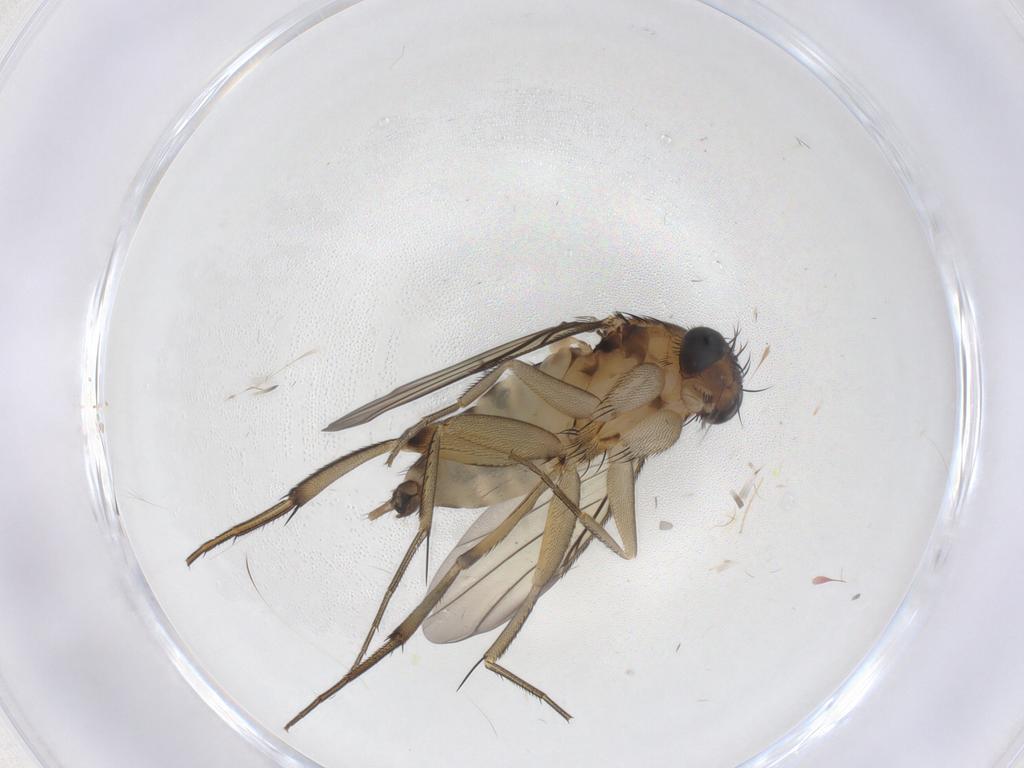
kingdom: Animalia
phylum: Arthropoda
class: Insecta
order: Diptera
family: Phoridae
